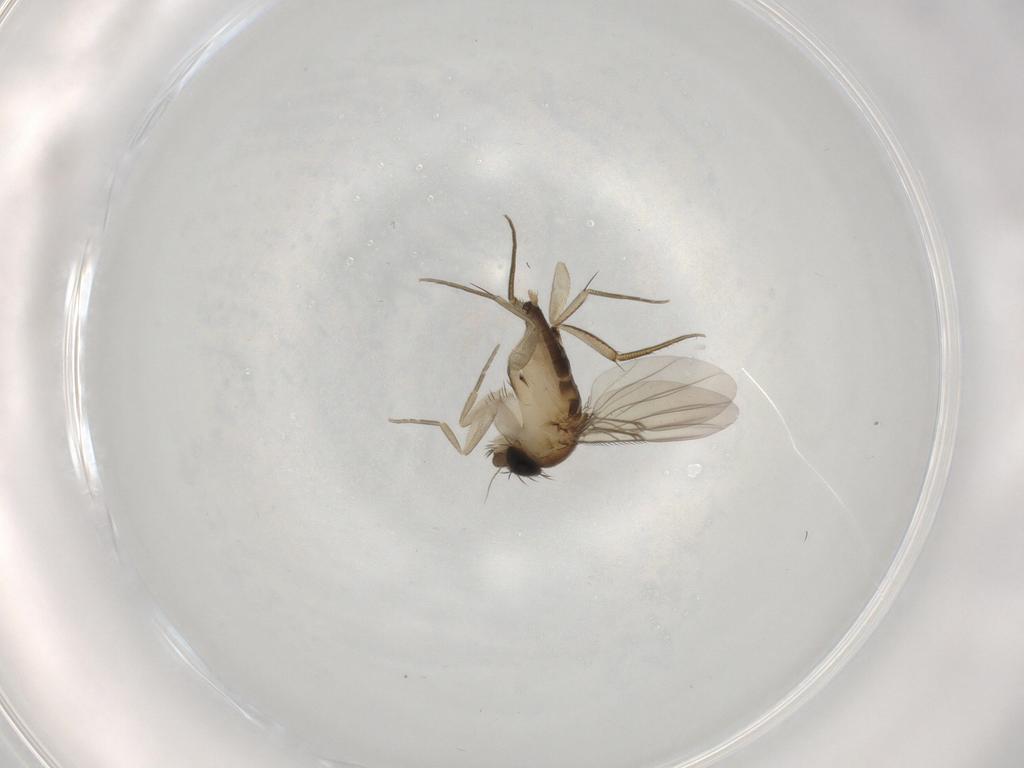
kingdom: Animalia
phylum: Arthropoda
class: Insecta
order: Diptera
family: Phoridae
